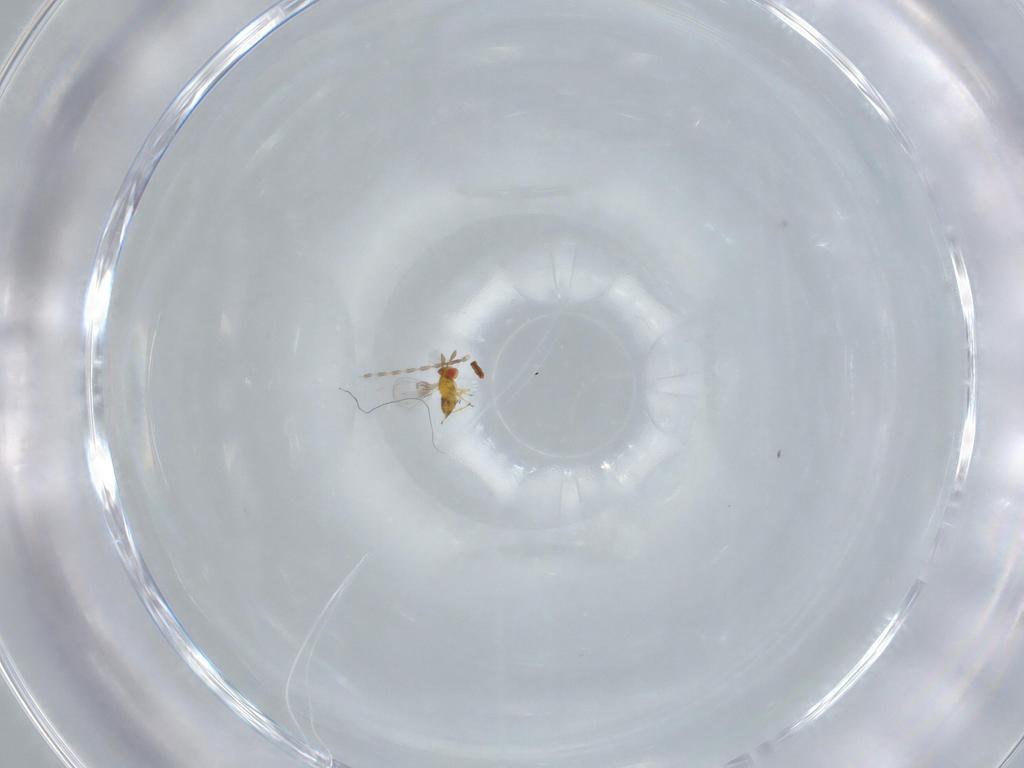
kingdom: Animalia
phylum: Arthropoda
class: Insecta
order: Hymenoptera
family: Trichogrammatidae
